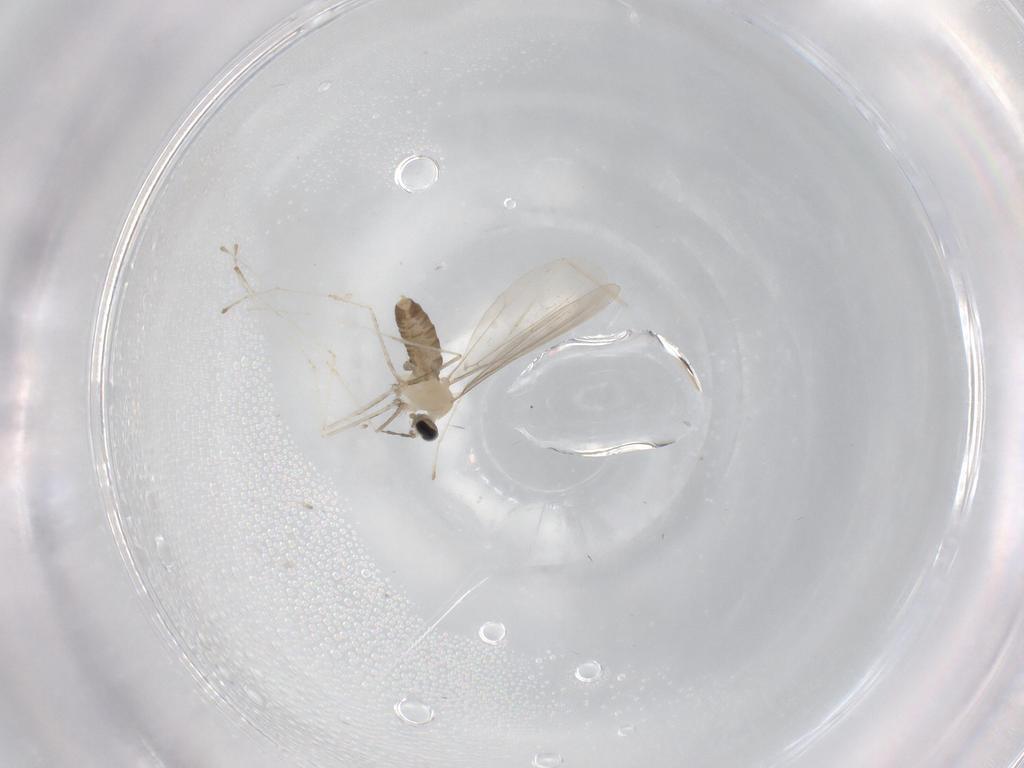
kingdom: Animalia
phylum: Arthropoda
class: Insecta
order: Diptera
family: Cecidomyiidae
